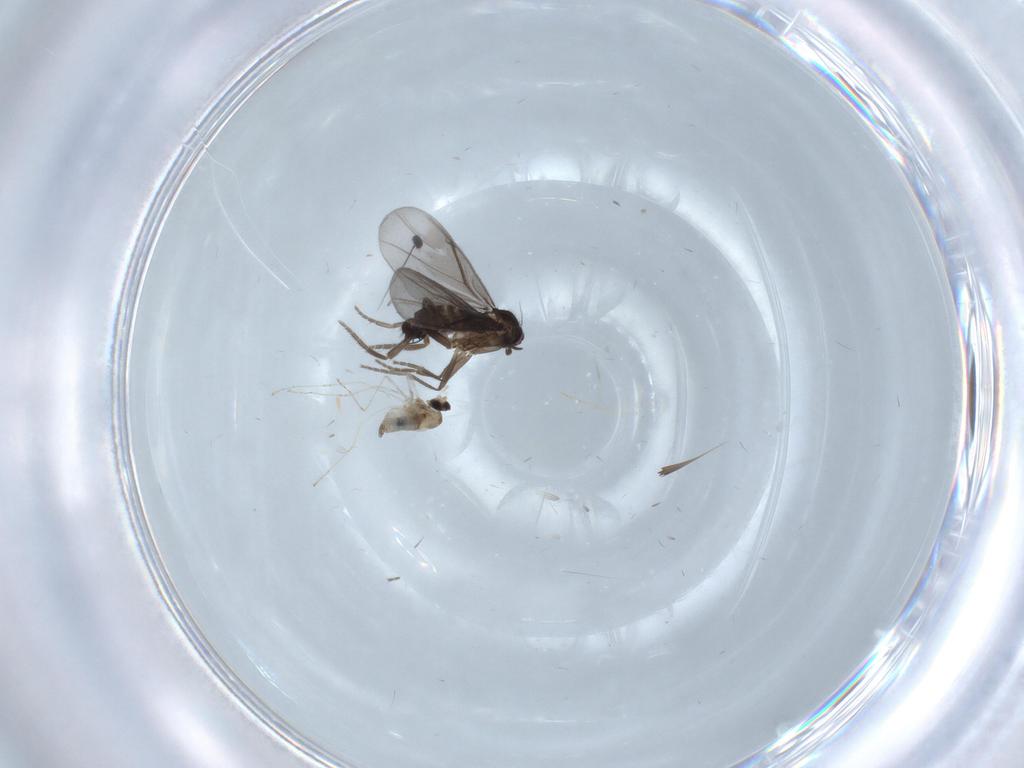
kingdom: Animalia
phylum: Arthropoda
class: Insecta
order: Diptera
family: Phoridae
